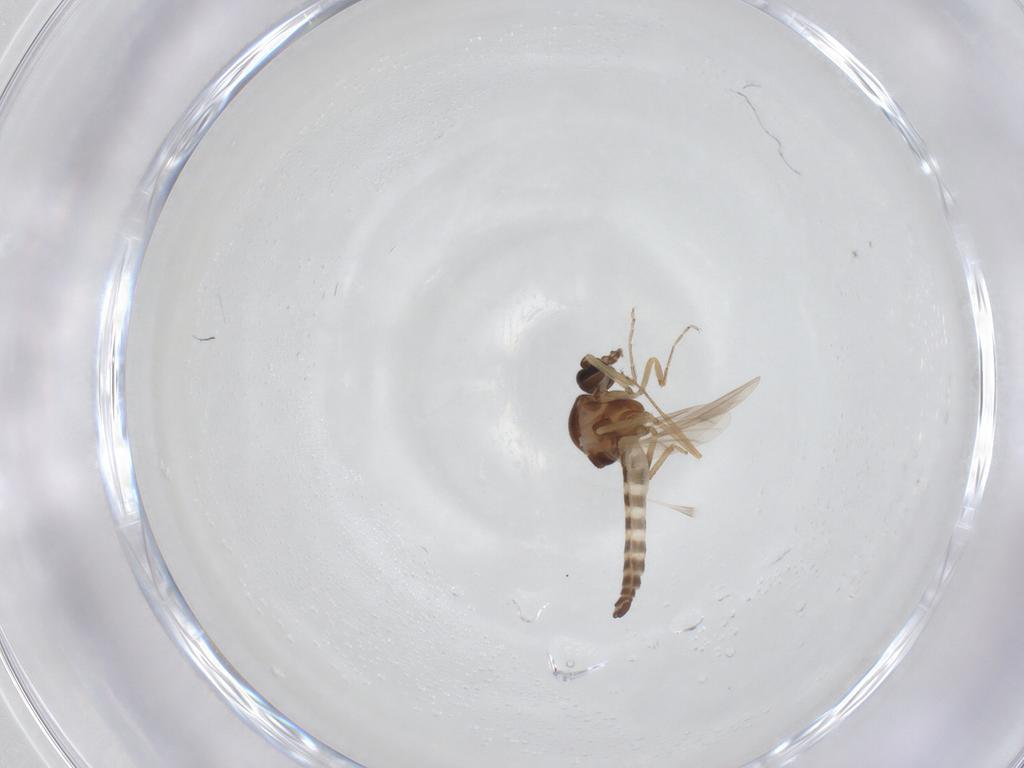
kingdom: Animalia
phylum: Arthropoda
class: Insecta
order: Diptera
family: Ceratopogonidae
